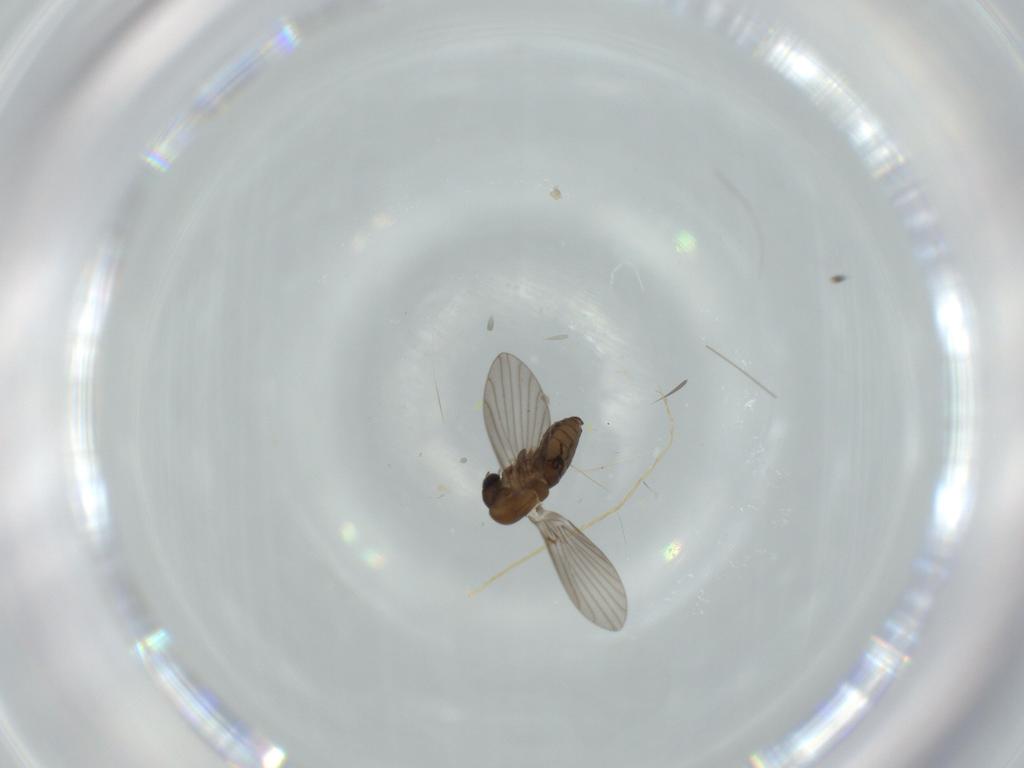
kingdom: Animalia
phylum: Arthropoda
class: Insecta
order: Diptera
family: Psychodidae
